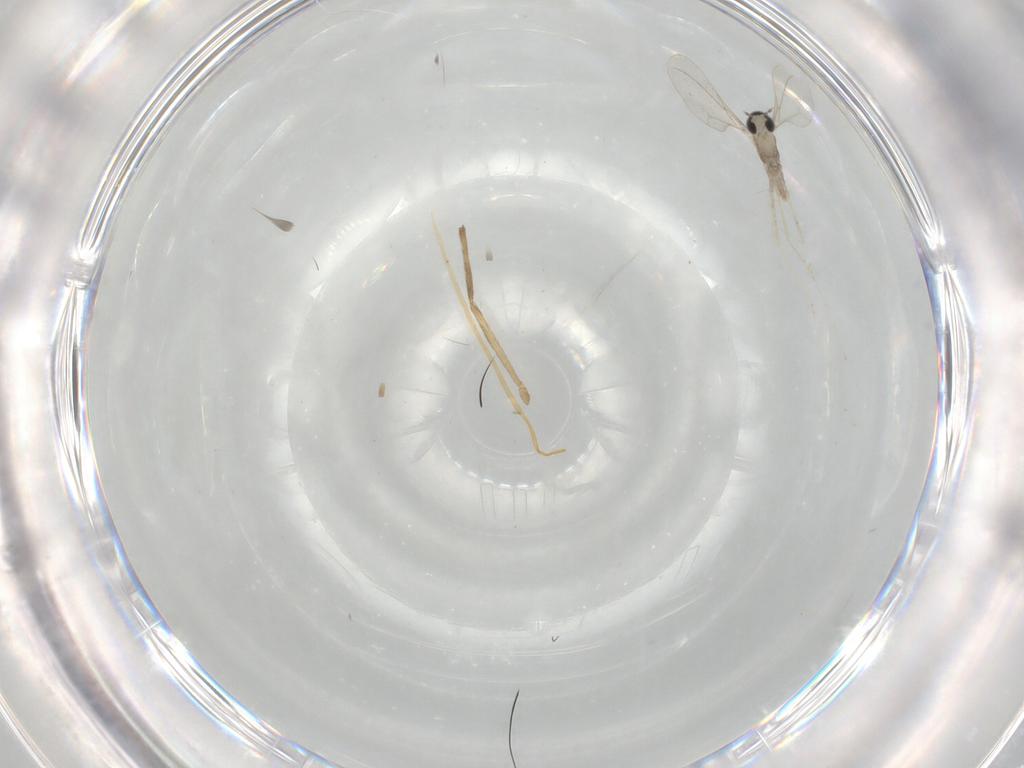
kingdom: Animalia
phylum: Arthropoda
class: Insecta
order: Diptera
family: Cecidomyiidae
